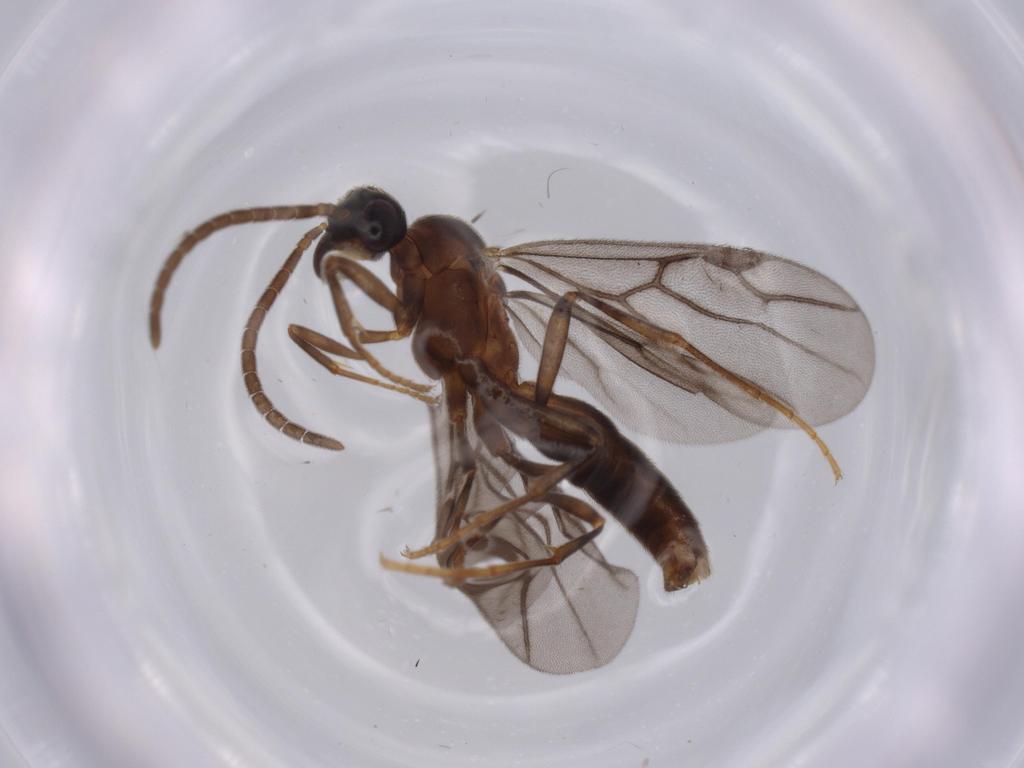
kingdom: Animalia
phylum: Arthropoda
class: Insecta
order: Hymenoptera
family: Formicidae
